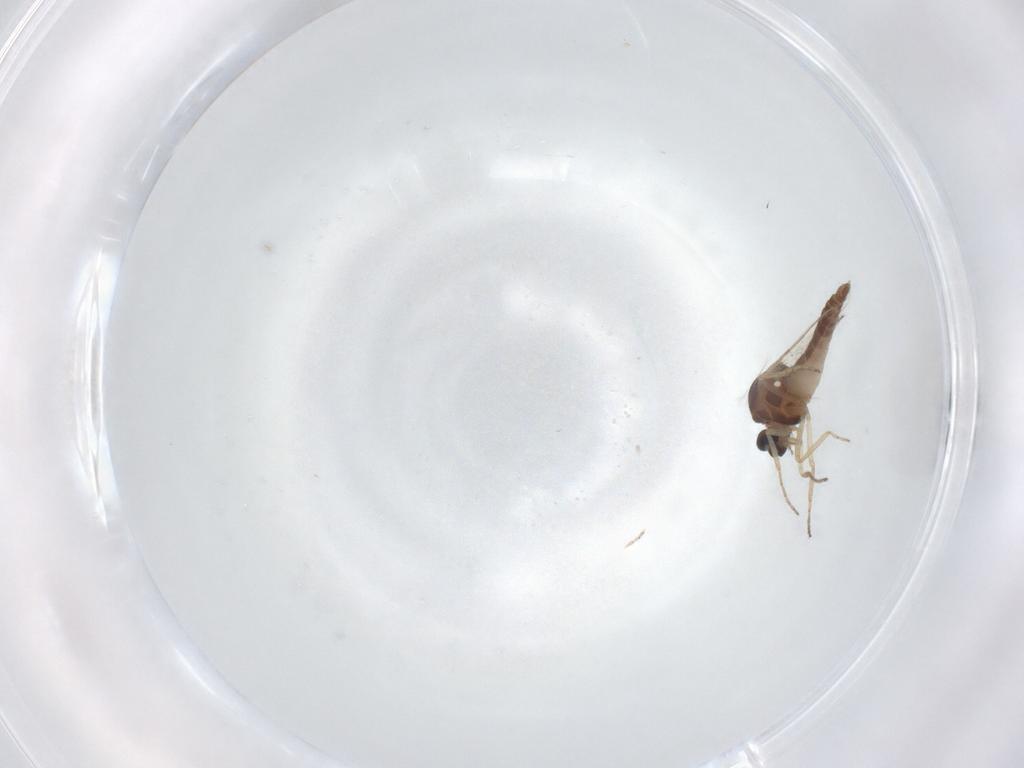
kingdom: Animalia
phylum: Arthropoda
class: Insecta
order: Diptera
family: Ceratopogonidae
